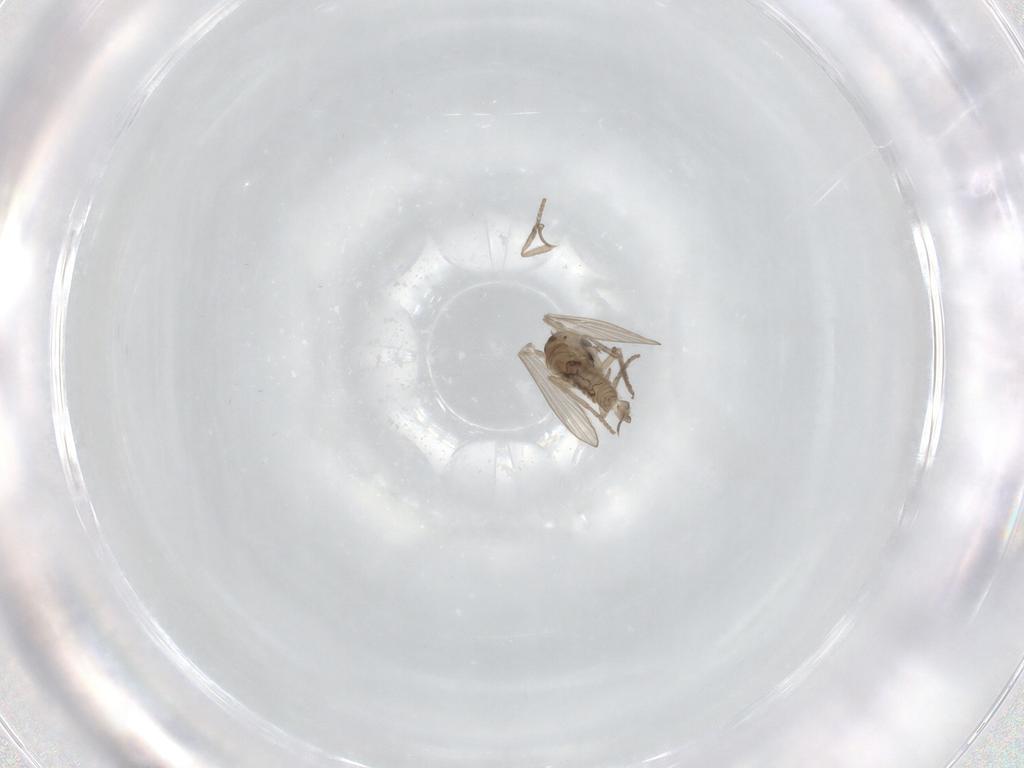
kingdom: Animalia
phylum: Arthropoda
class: Insecta
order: Diptera
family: Psychodidae
